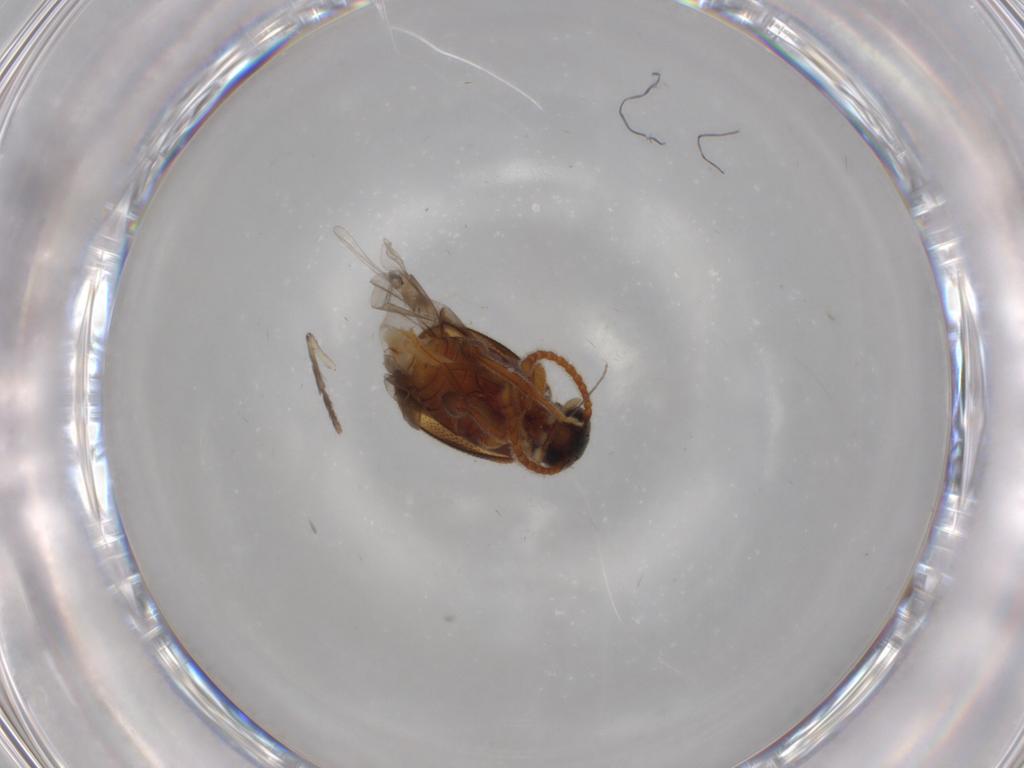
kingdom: Animalia
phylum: Arthropoda
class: Insecta
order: Coleoptera
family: Aderidae
